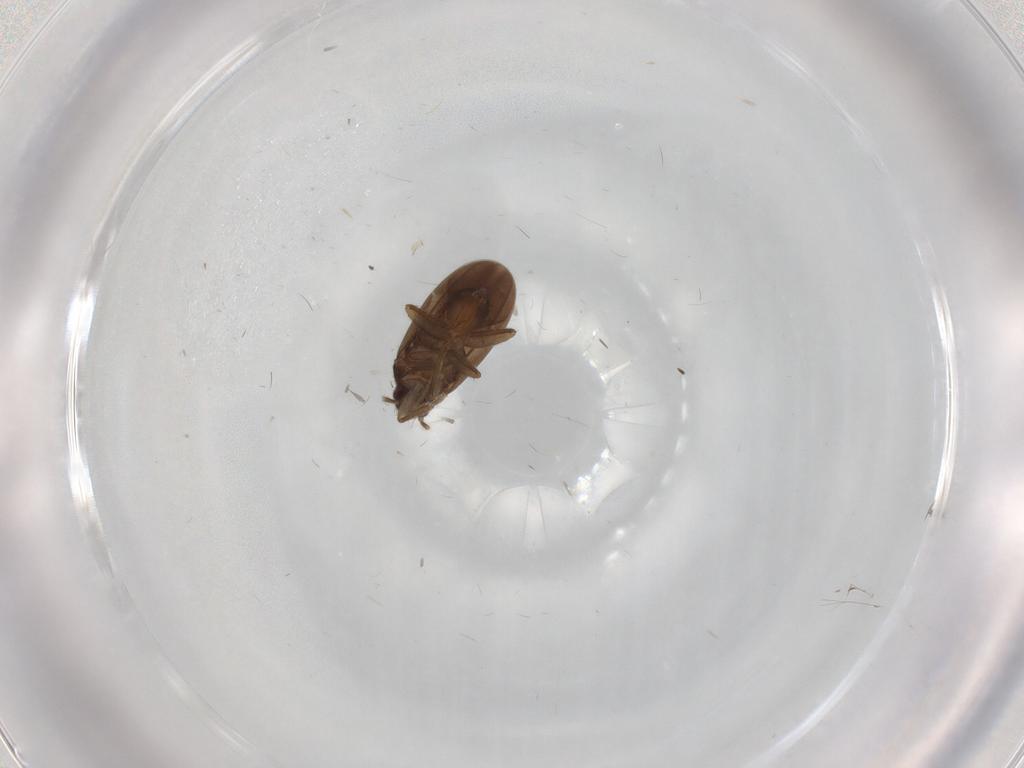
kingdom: Animalia
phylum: Arthropoda
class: Insecta
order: Hemiptera
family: Ceratocombidae
